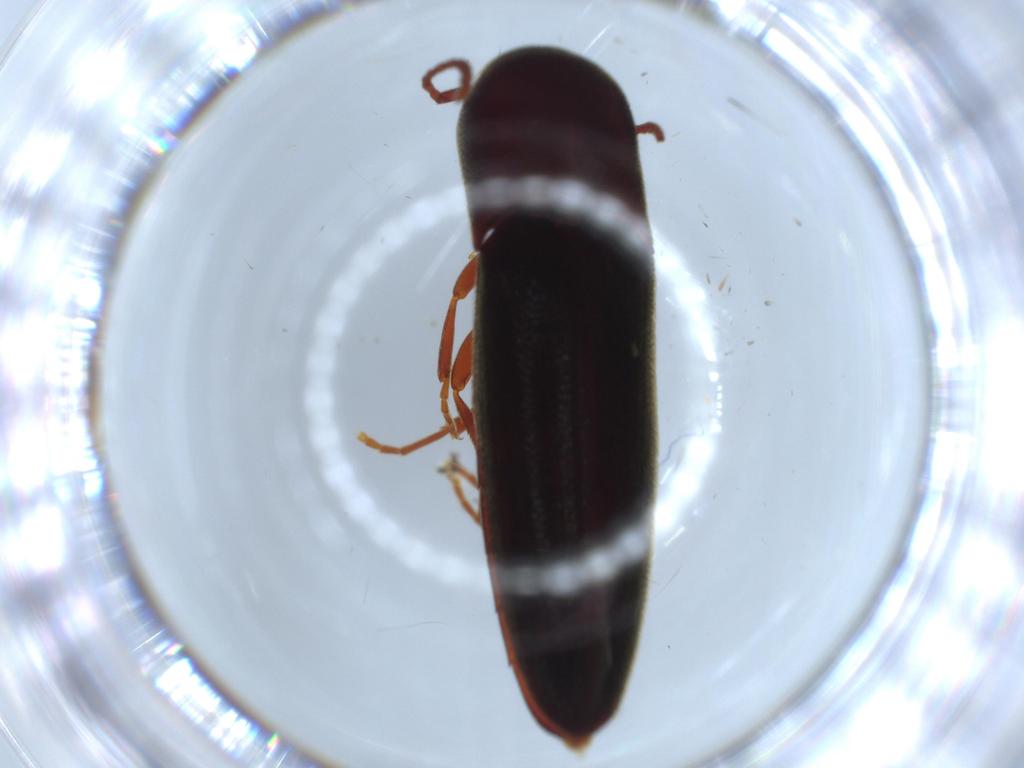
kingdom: Animalia
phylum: Arthropoda
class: Insecta
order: Coleoptera
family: Eucnemidae
